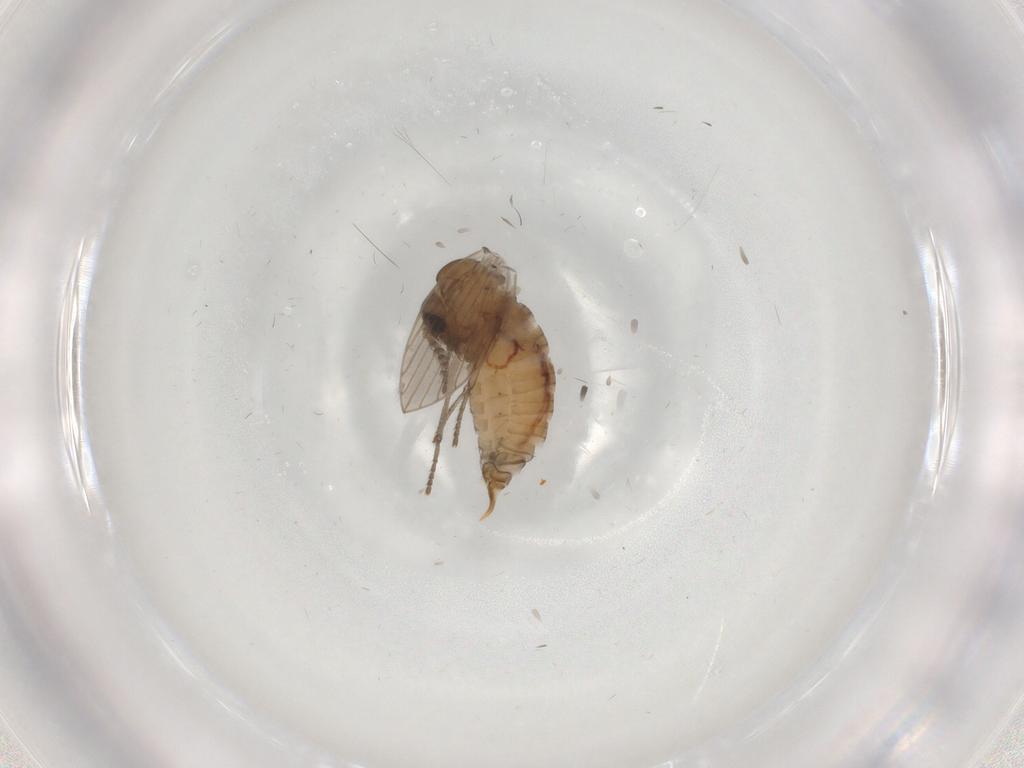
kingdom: Animalia
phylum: Arthropoda
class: Insecta
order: Diptera
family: Psychodidae
